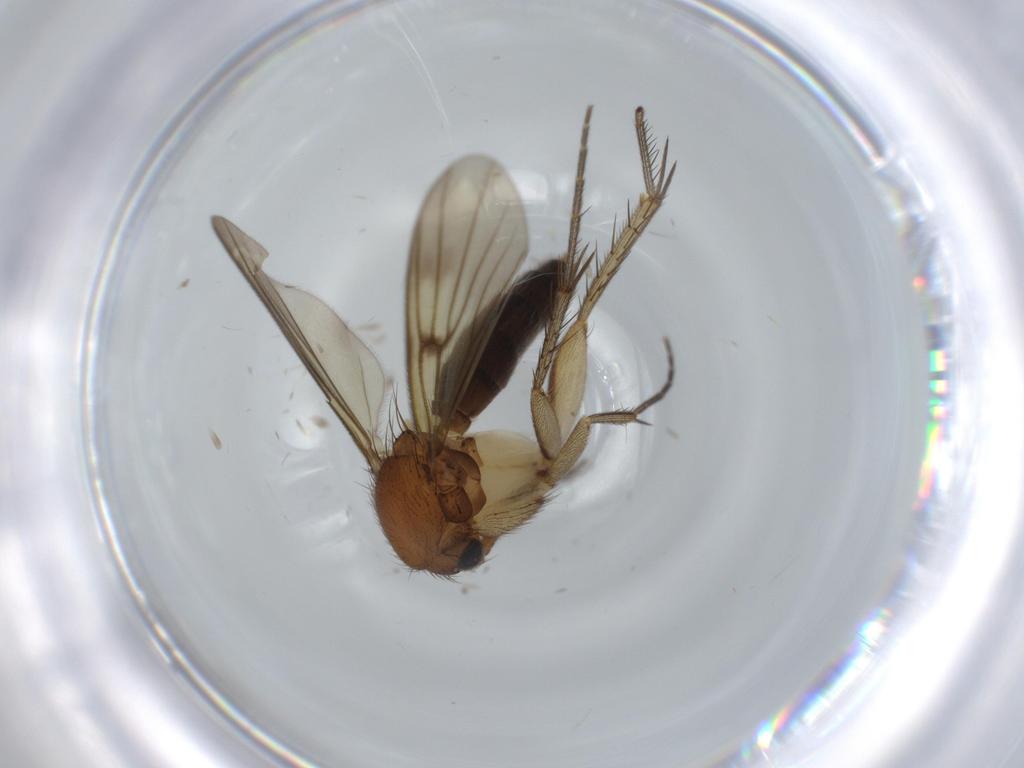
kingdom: Animalia
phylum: Arthropoda
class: Insecta
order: Diptera
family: Mycetophilidae
